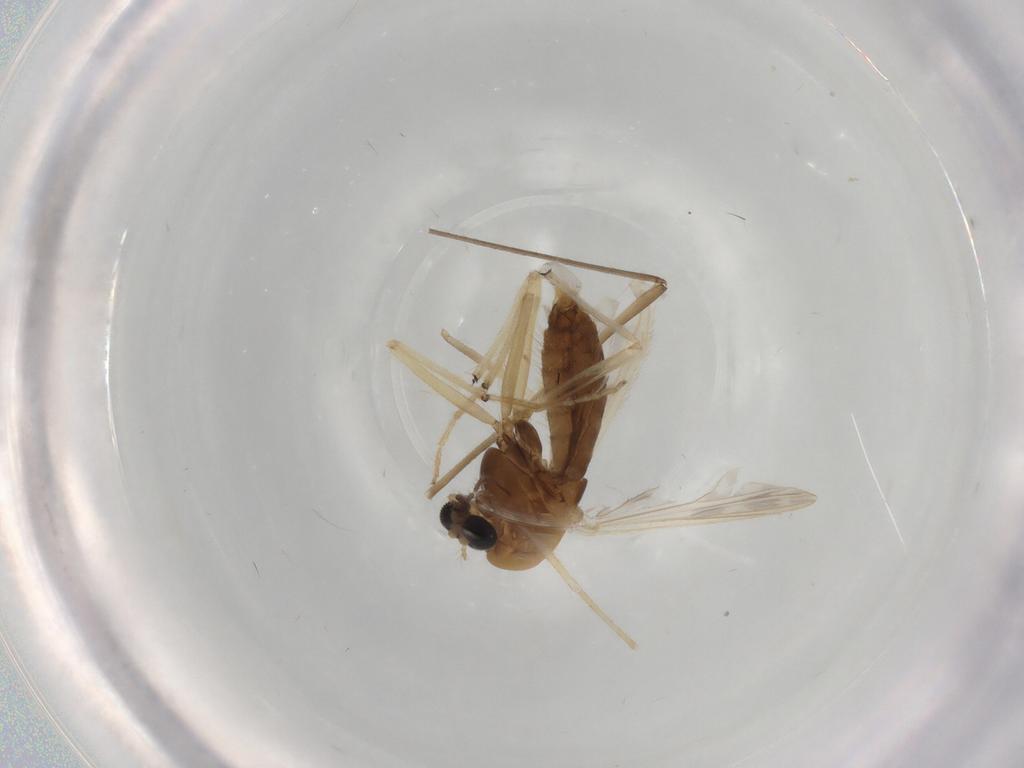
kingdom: Animalia
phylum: Arthropoda
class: Insecta
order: Diptera
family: Chironomidae
